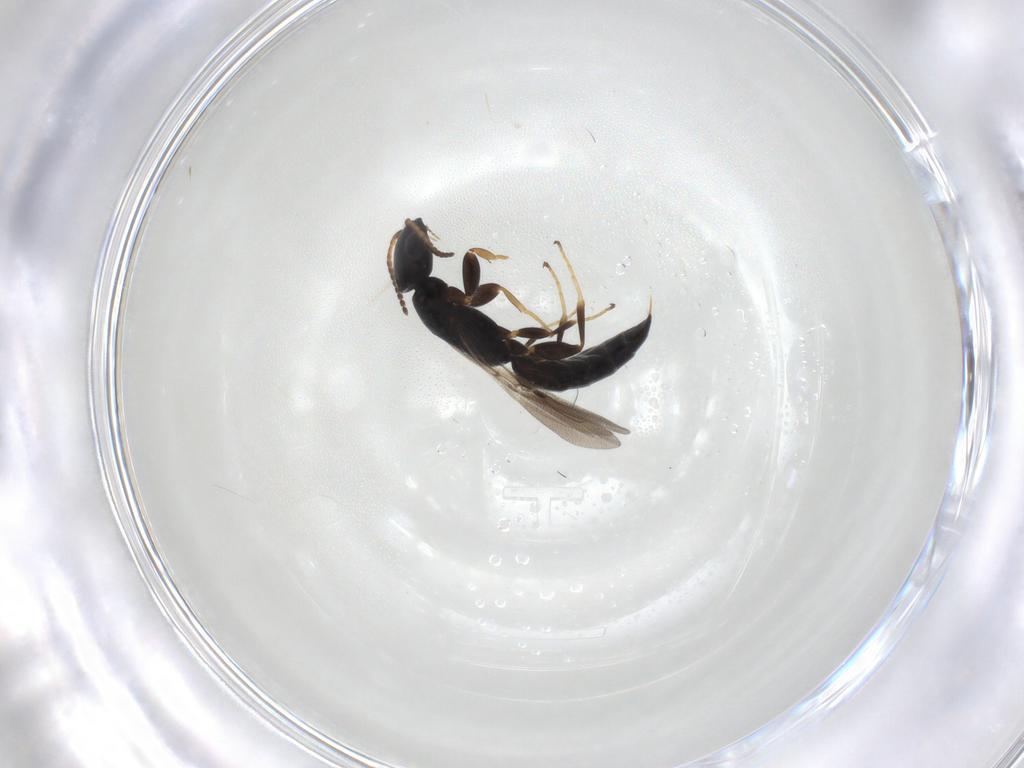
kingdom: Animalia
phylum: Arthropoda
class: Insecta
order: Hymenoptera
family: Bethylidae
